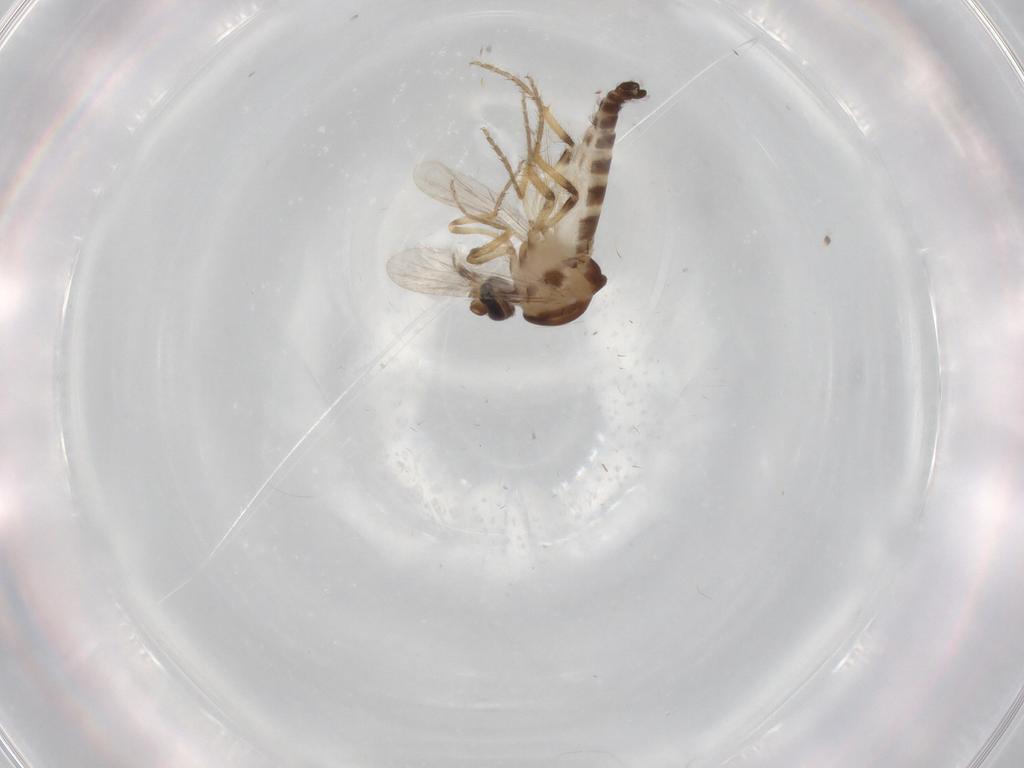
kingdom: Animalia
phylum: Arthropoda
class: Insecta
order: Diptera
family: Ceratopogonidae
